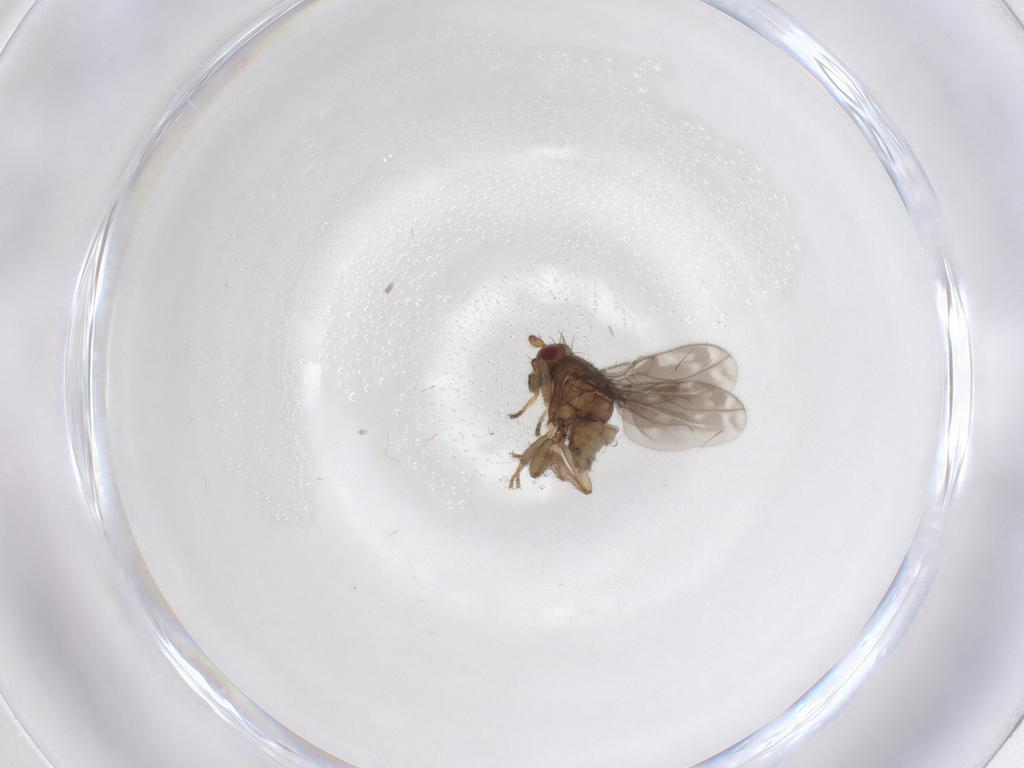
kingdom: Animalia
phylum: Arthropoda
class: Insecta
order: Diptera
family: Sphaeroceridae
